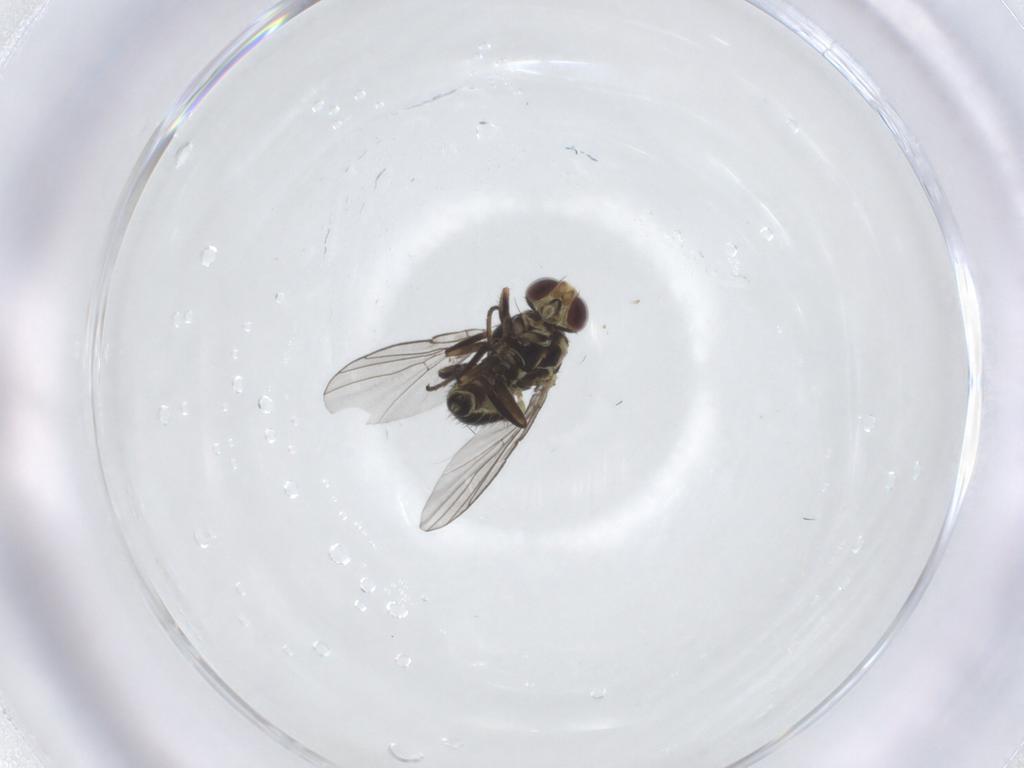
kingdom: Animalia
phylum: Arthropoda
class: Insecta
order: Diptera
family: Agromyzidae
